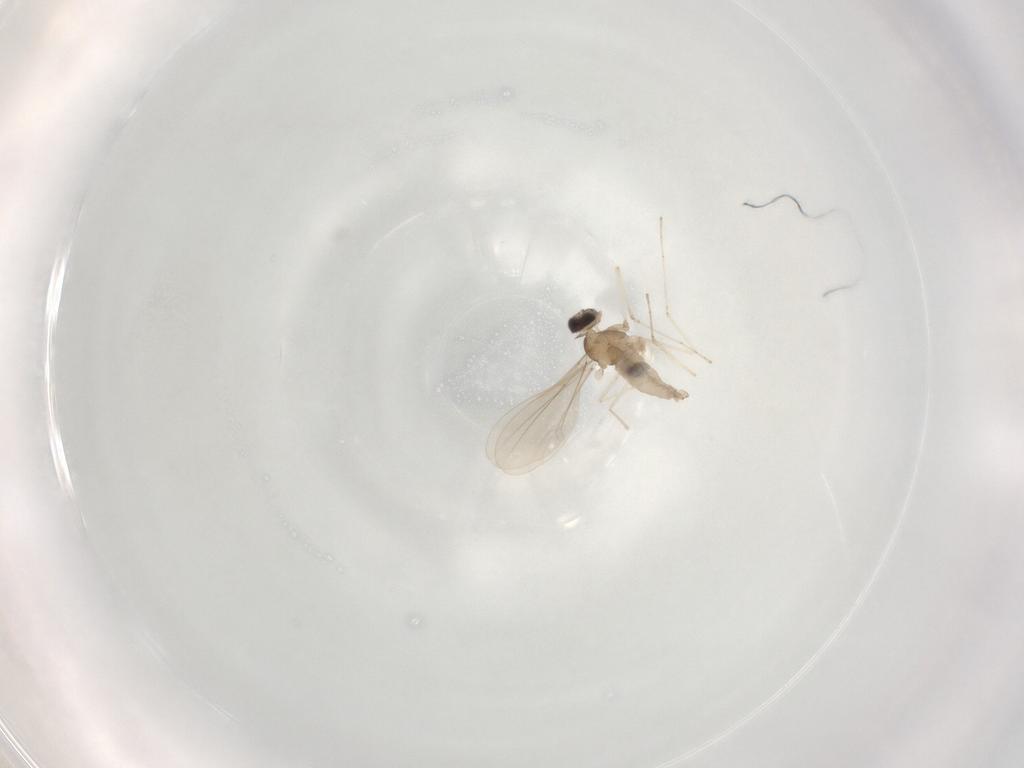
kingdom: Animalia
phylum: Arthropoda
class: Insecta
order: Diptera
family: Cecidomyiidae
